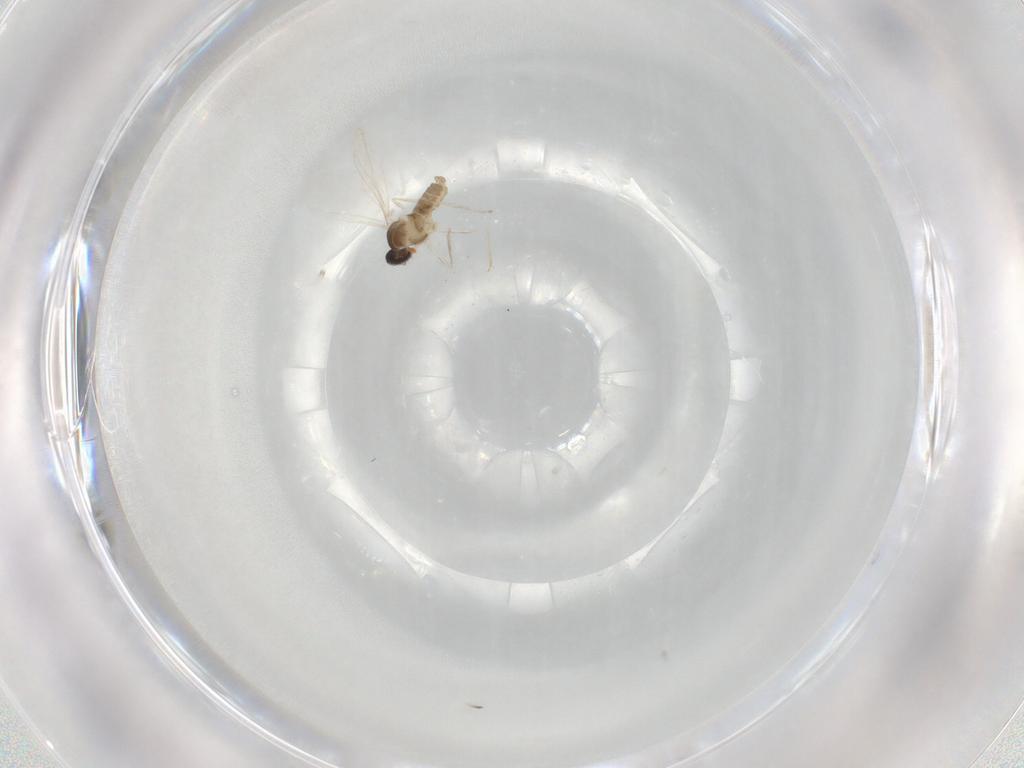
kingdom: Animalia
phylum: Arthropoda
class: Insecta
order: Diptera
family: Cecidomyiidae
